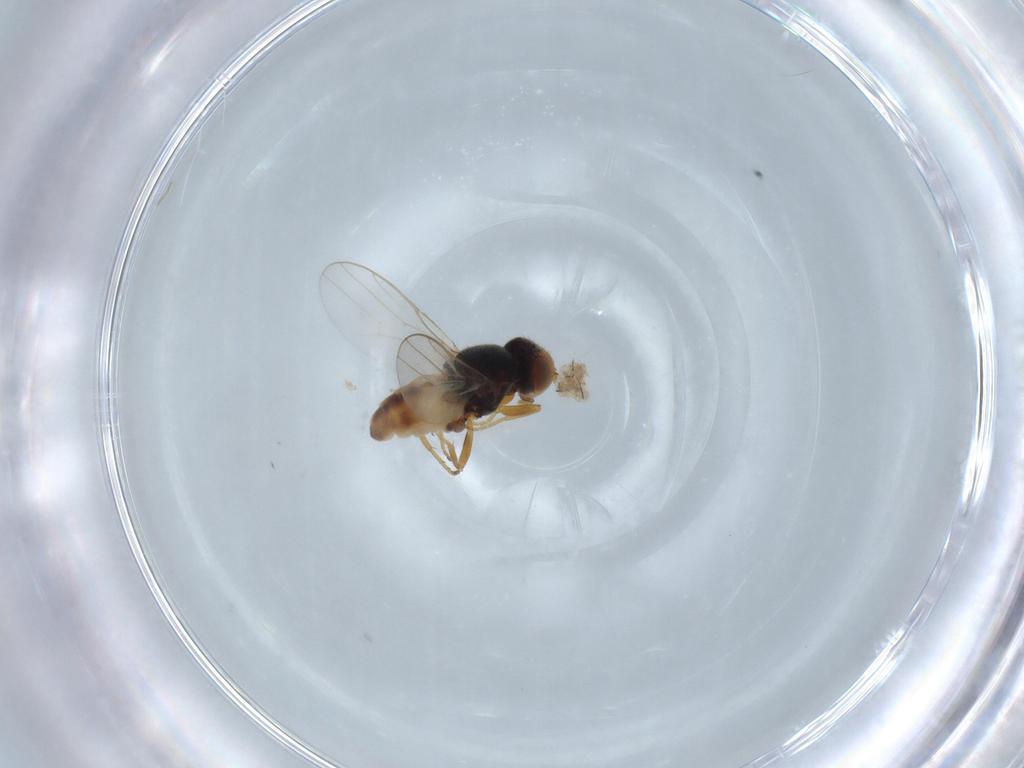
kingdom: Animalia
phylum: Arthropoda
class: Insecta
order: Diptera
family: Chloropidae
